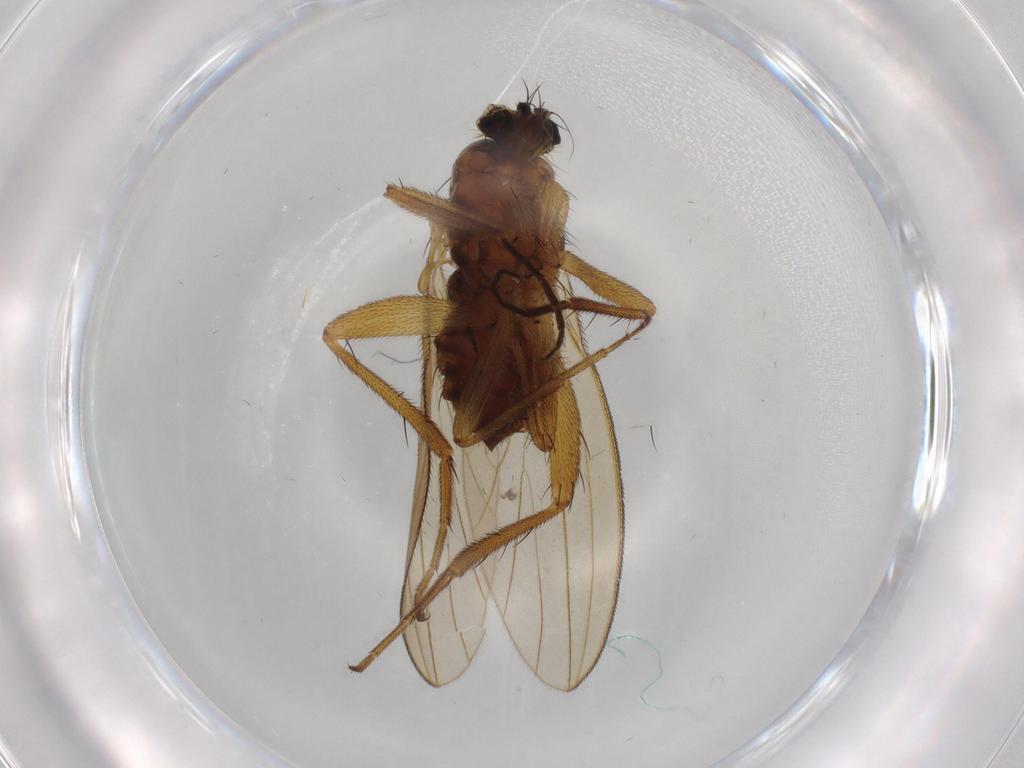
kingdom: Animalia
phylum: Arthropoda
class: Insecta
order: Diptera
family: Lonchopteridae
